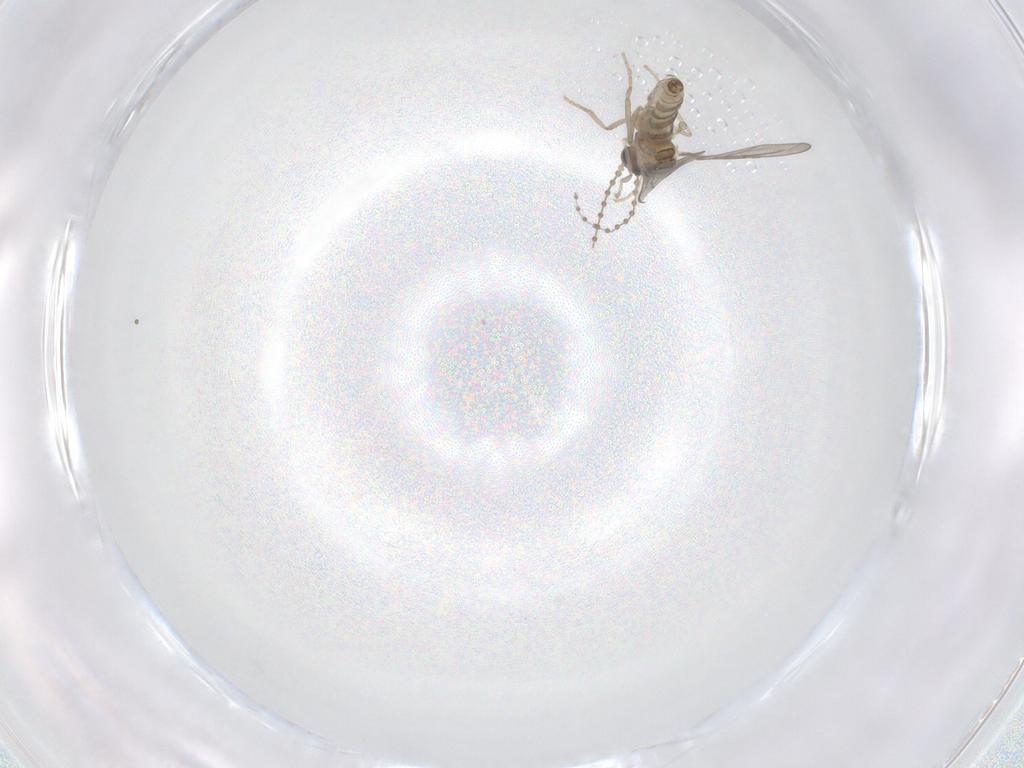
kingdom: Animalia
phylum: Arthropoda
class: Insecta
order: Diptera
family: Cecidomyiidae
